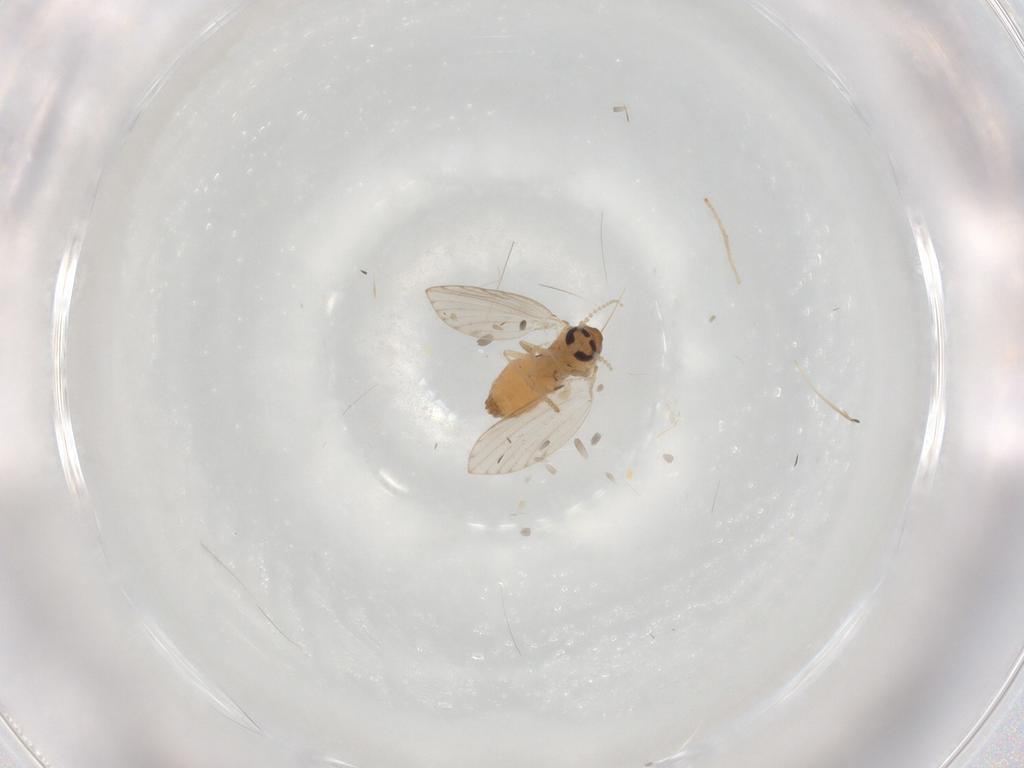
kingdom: Animalia
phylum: Arthropoda
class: Insecta
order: Diptera
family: Psychodidae
